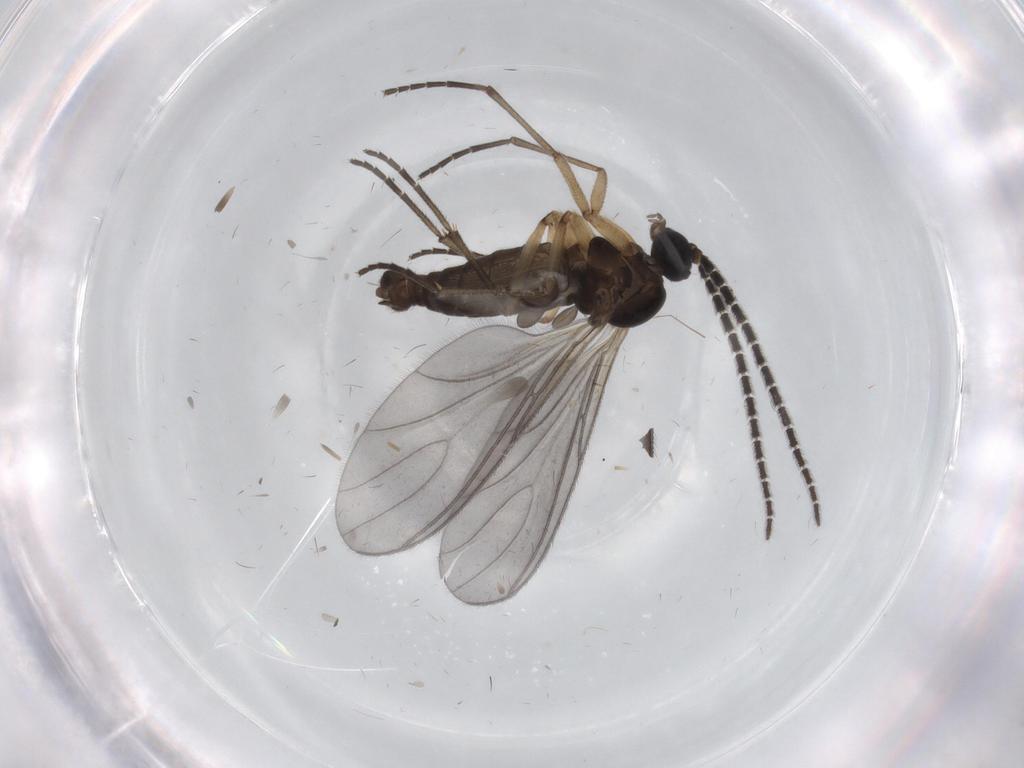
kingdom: Animalia
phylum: Arthropoda
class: Insecta
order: Diptera
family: Sciaridae
